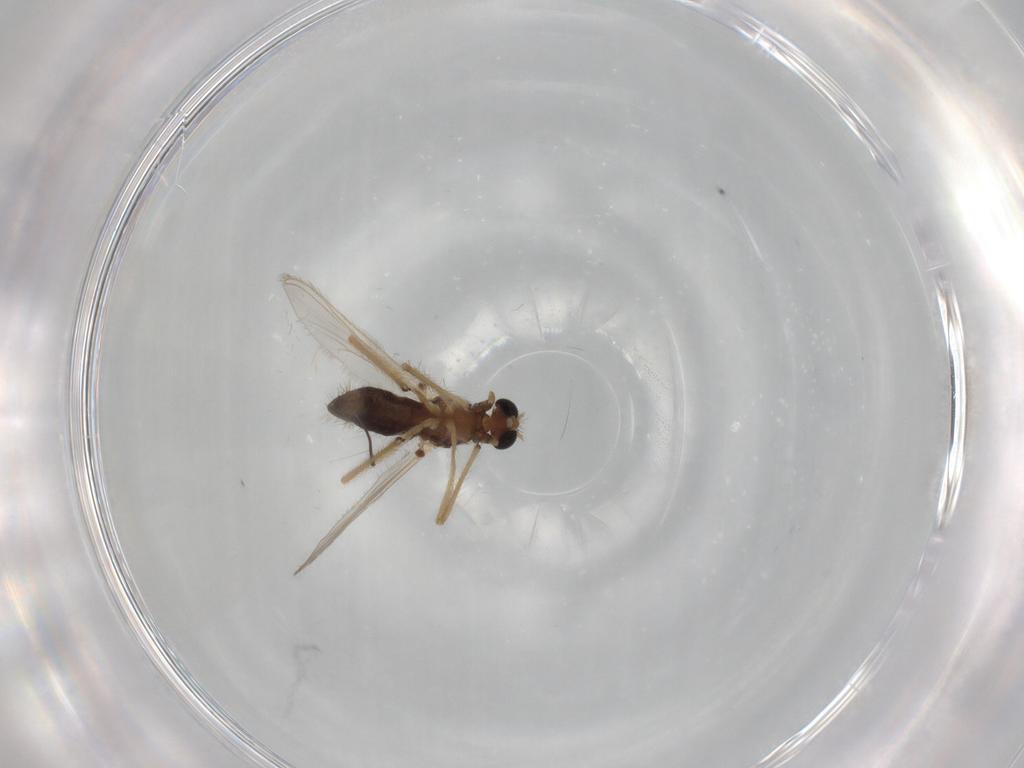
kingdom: Animalia
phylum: Arthropoda
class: Insecta
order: Diptera
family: Chironomidae
